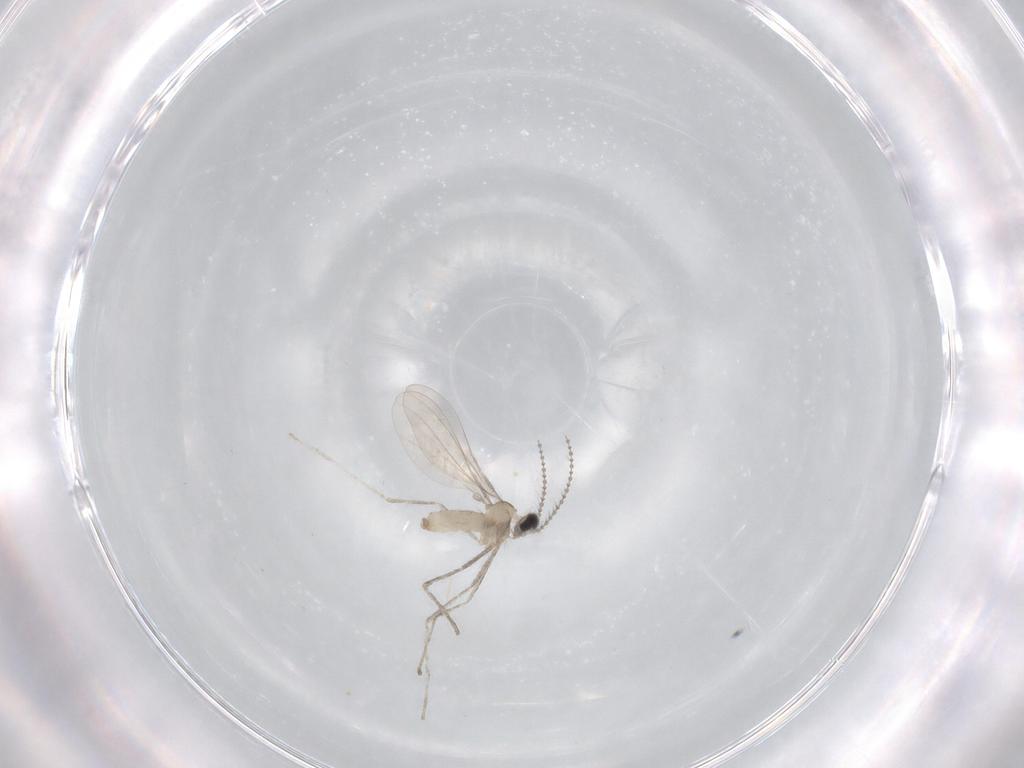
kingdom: Animalia
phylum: Arthropoda
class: Insecta
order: Diptera
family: Cecidomyiidae
